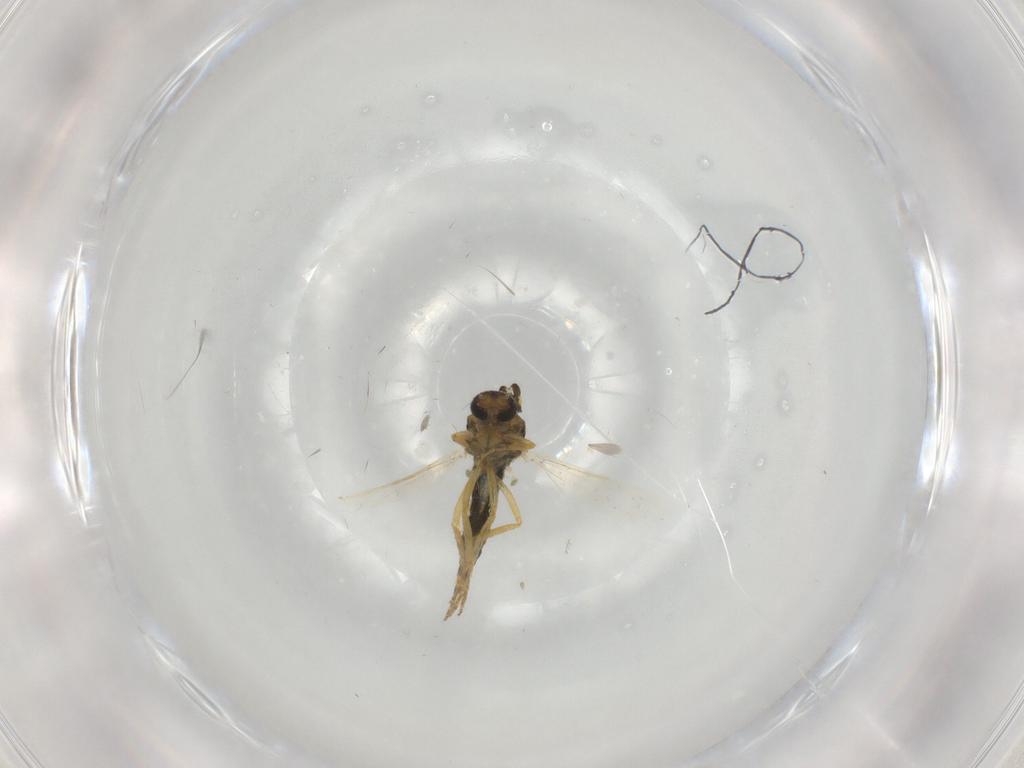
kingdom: Animalia
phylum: Arthropoda
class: Insecta
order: Diptera
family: Ceratopogonidae
